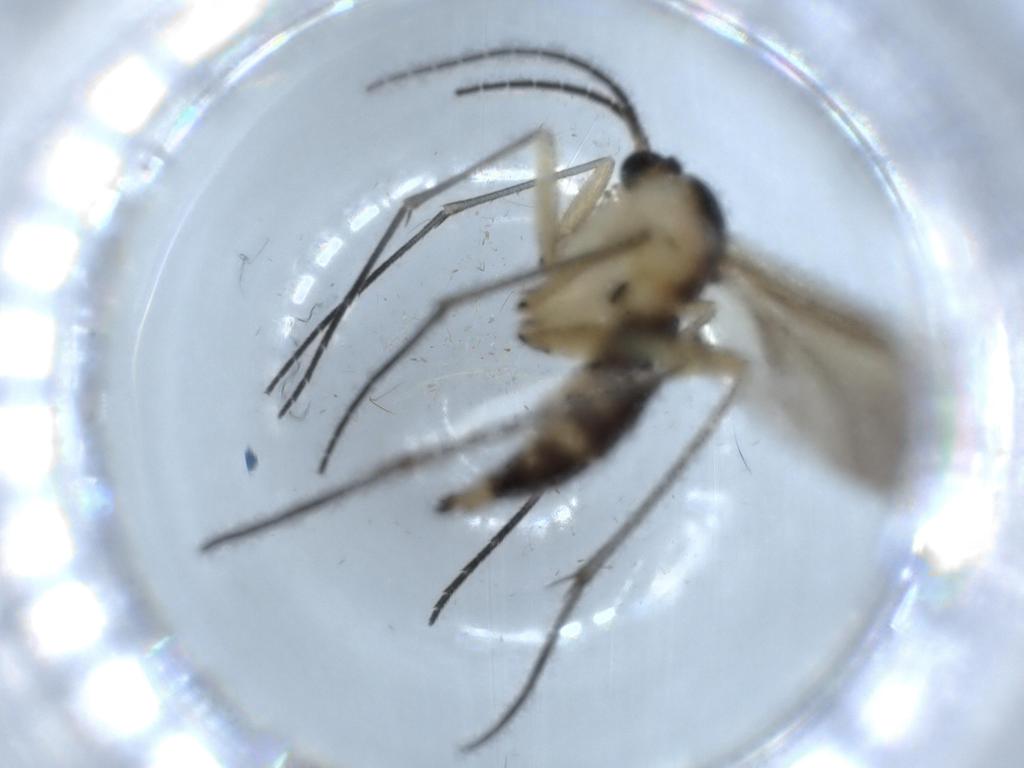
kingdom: Animalia
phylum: Arthropoda
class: Insecta
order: Diptera
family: Sciaridae
